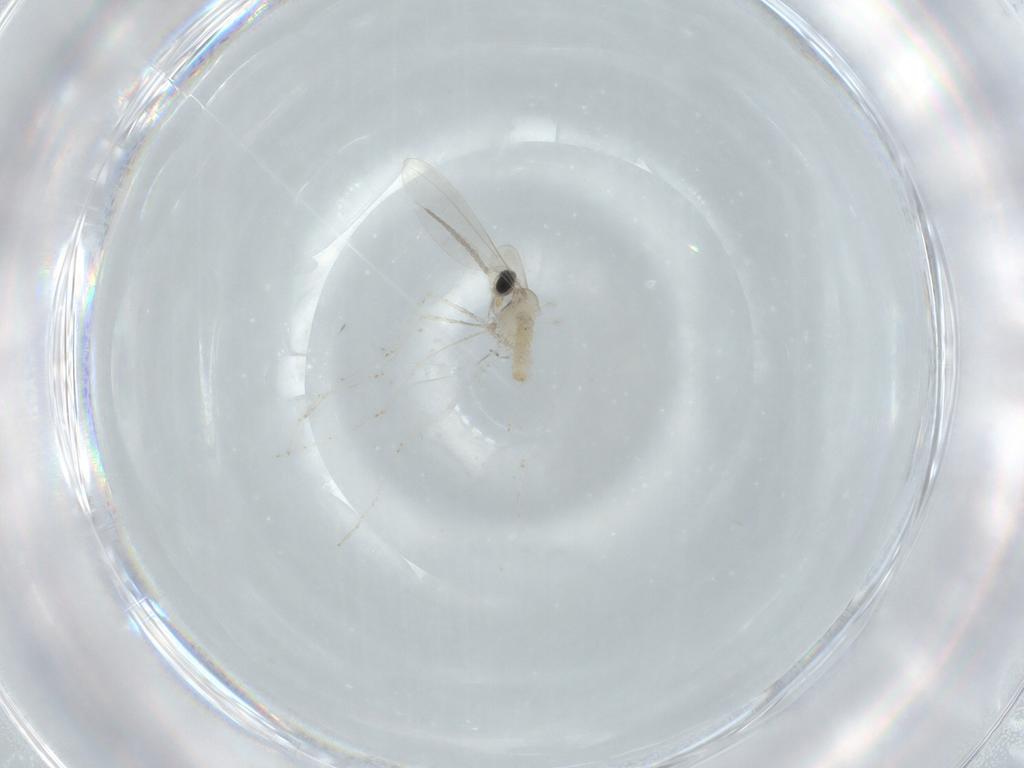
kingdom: Animalia
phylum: Arthropoda
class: Insecta
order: Diptera
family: Cecidomyiidae
